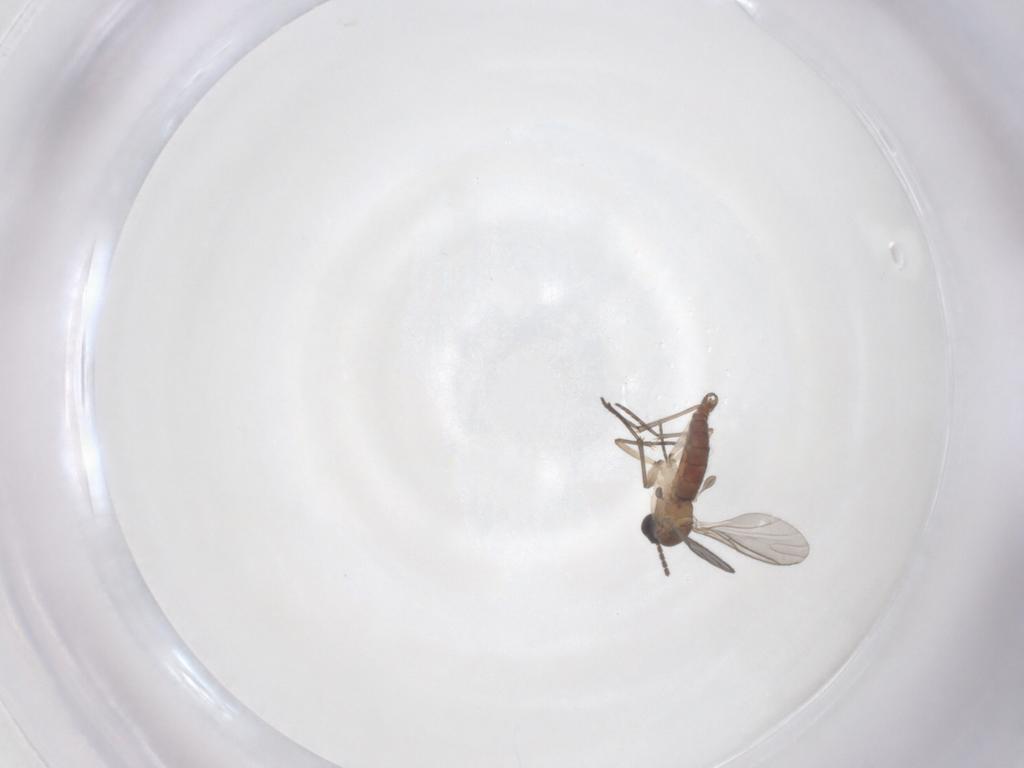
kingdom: Animalia
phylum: Arthropoda
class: Insecta
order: Diptera
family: Sciaridae
